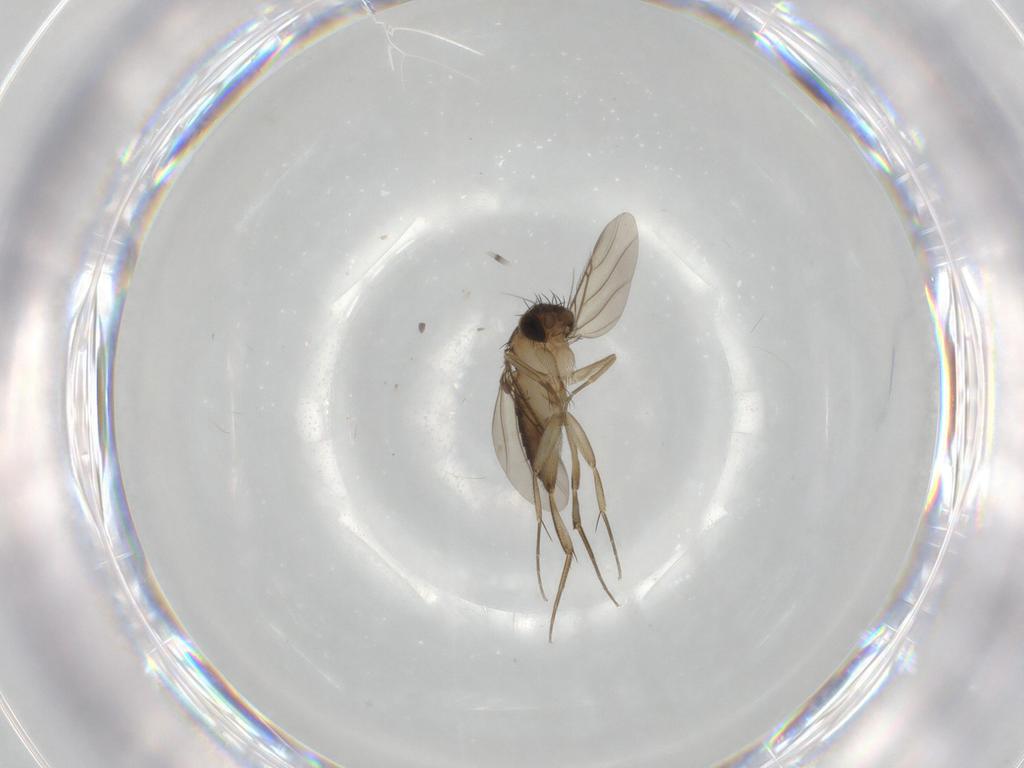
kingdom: Animalia
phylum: Arthropoda
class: Insecta
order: Diptera
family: Phoridae
